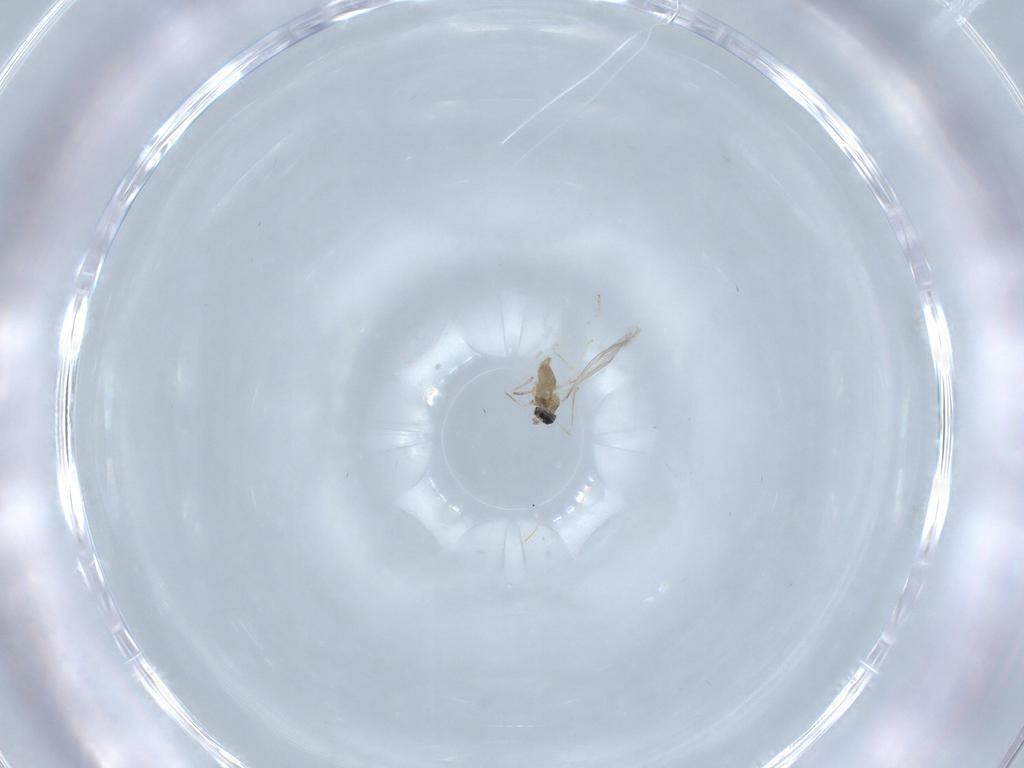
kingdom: Animalia
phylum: Arthropoda
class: Insecta
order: Diptera
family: Cecidomyiidae
